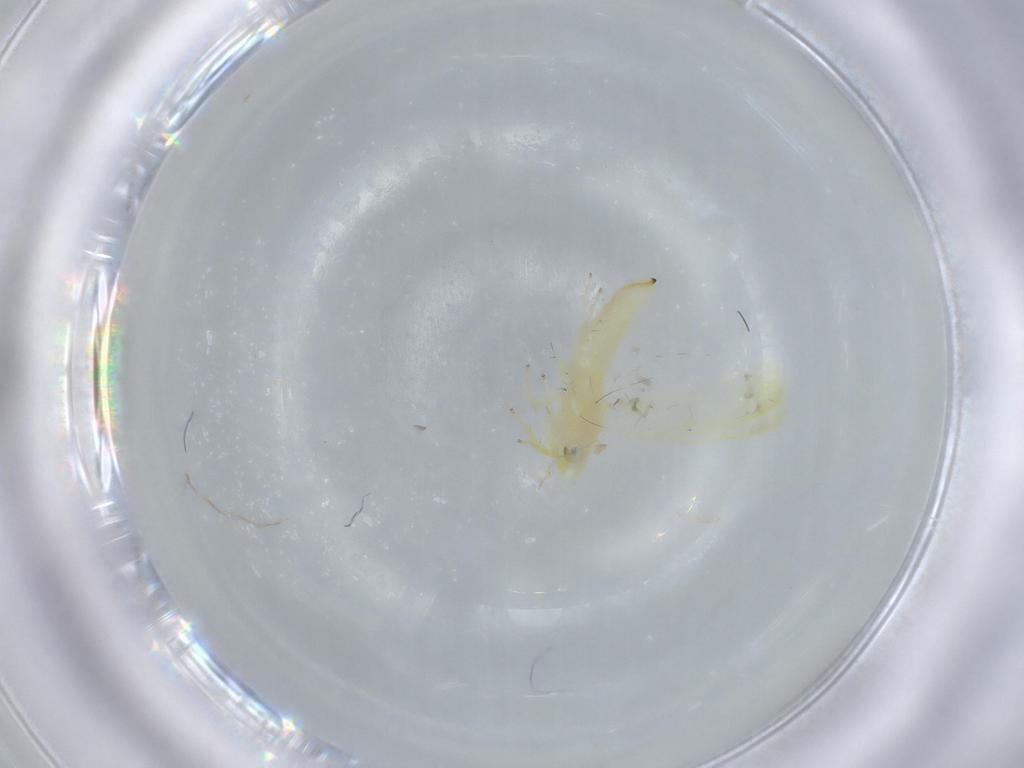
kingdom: Animalia
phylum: Arthropoda
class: Insecta
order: Hemiptera
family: Cicadellidae
